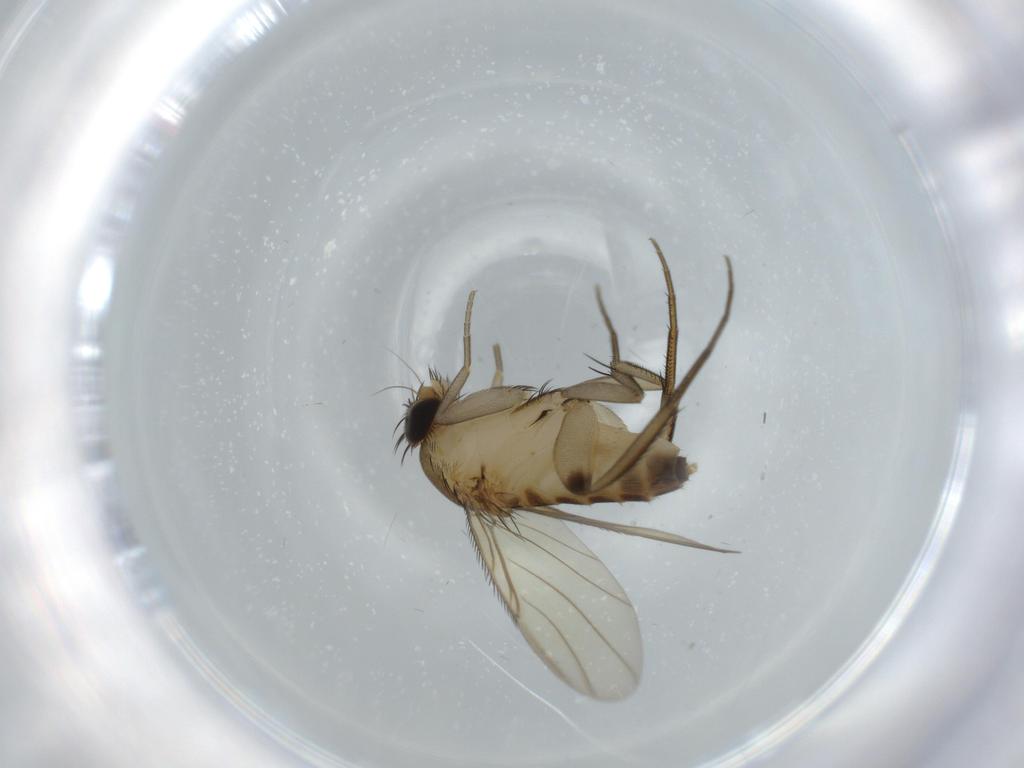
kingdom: Animalia
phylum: Arthropoda
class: Insecta
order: Diptera
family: Phoridae
